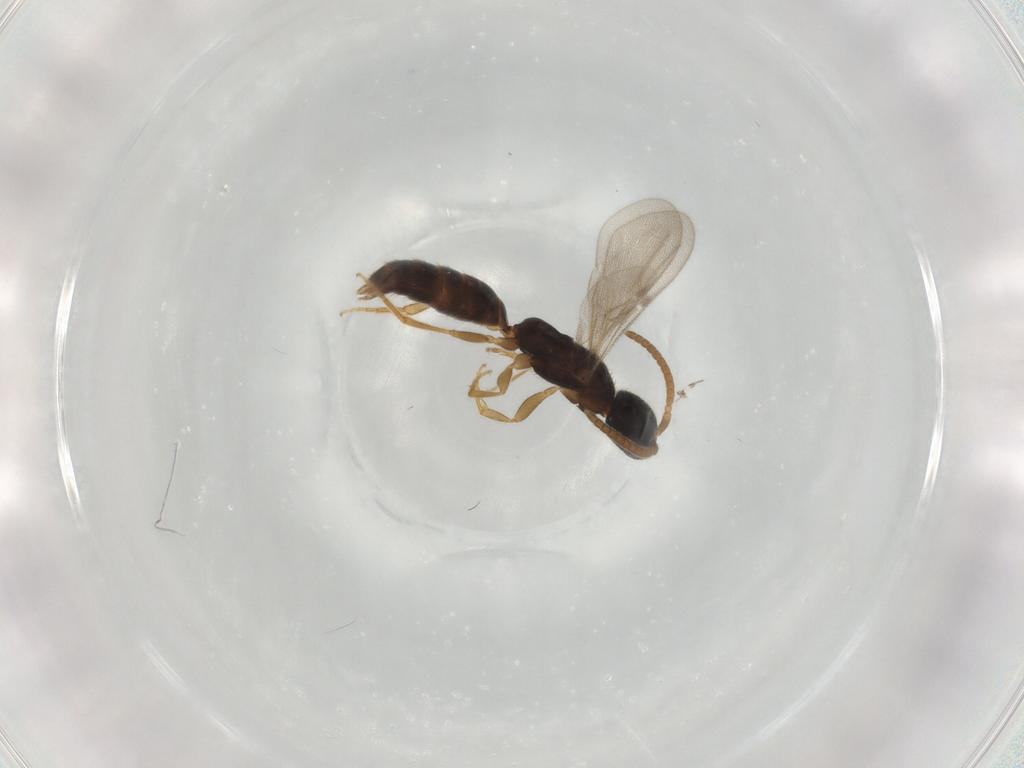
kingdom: Animalia
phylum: Arthropoda
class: Insecta
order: Hymenoptera
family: Bethylidae
